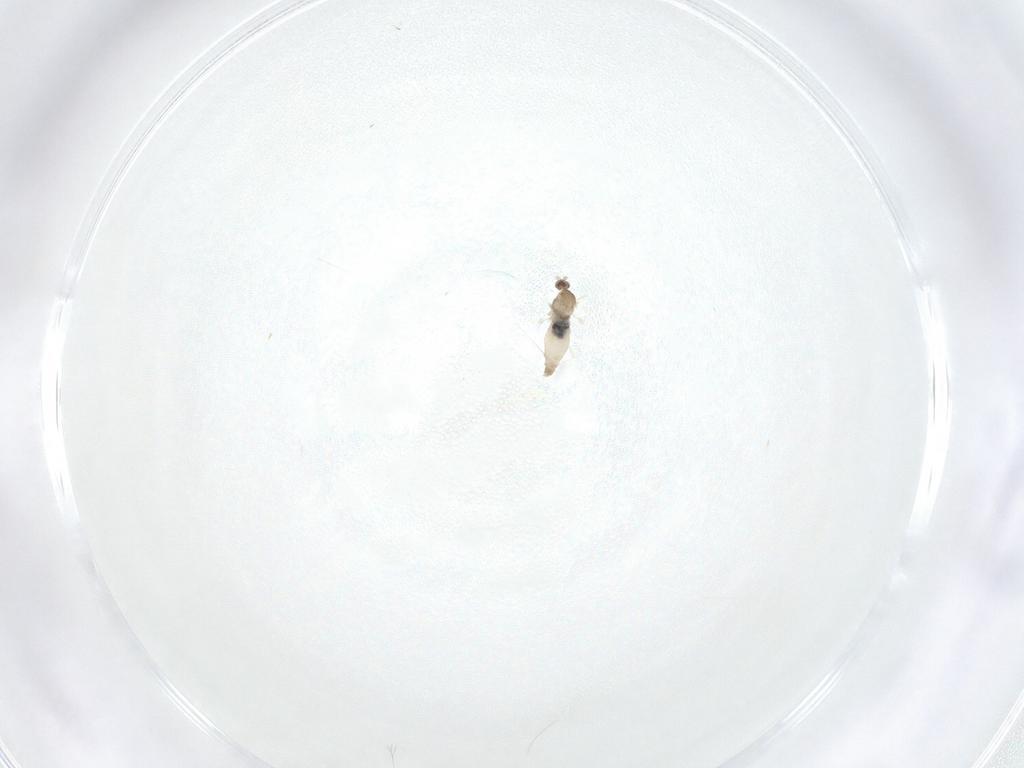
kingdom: Animalia
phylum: Arthropoda
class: Insecta
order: Diptera
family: Cecidomyiidae
